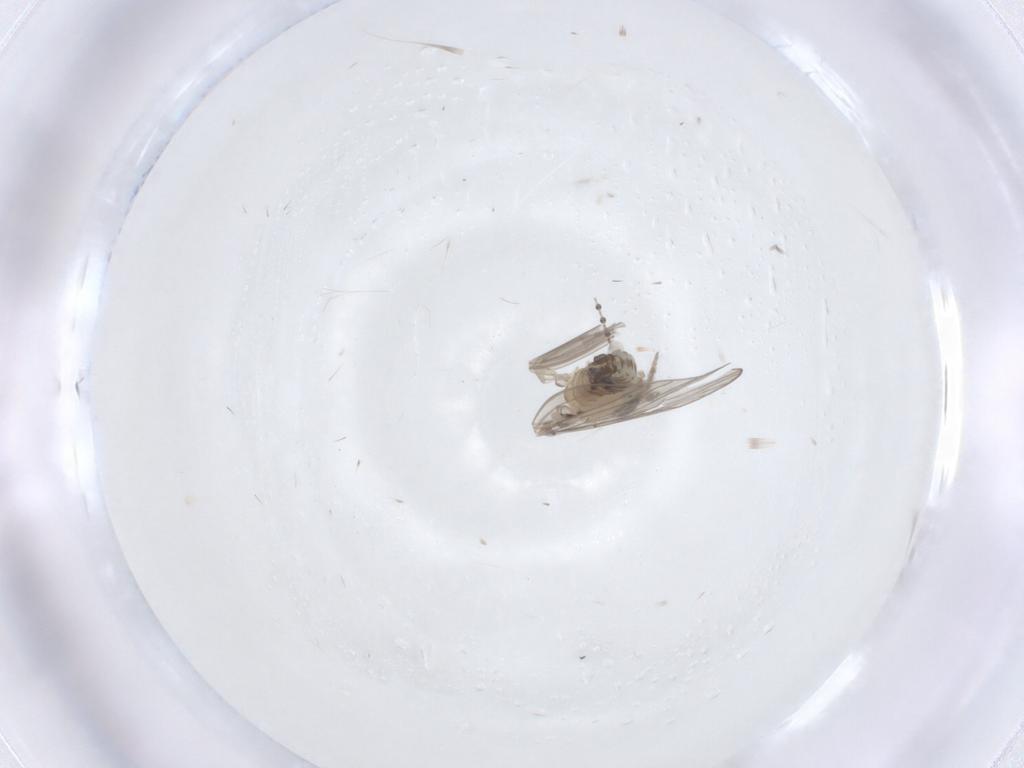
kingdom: Animalia
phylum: Arthropoda
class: Insecta
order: Diptera
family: Psychodidae
